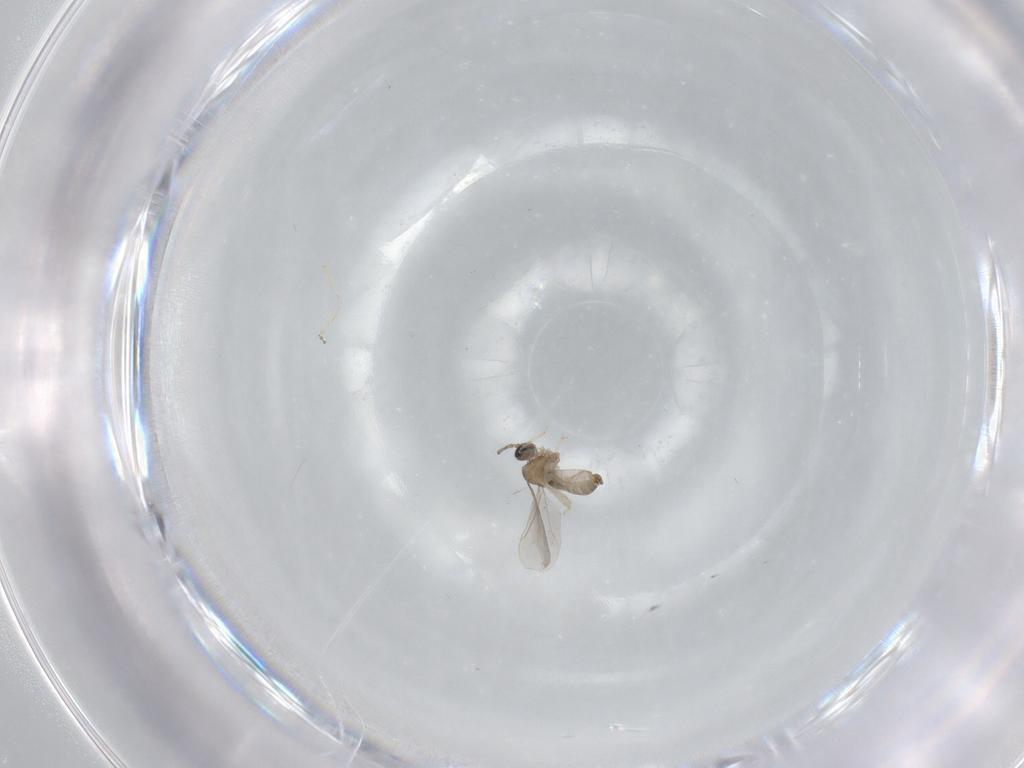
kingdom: Animalia
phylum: Arthropoda
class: Insecta
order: Diptera
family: Cecidomyiidae
